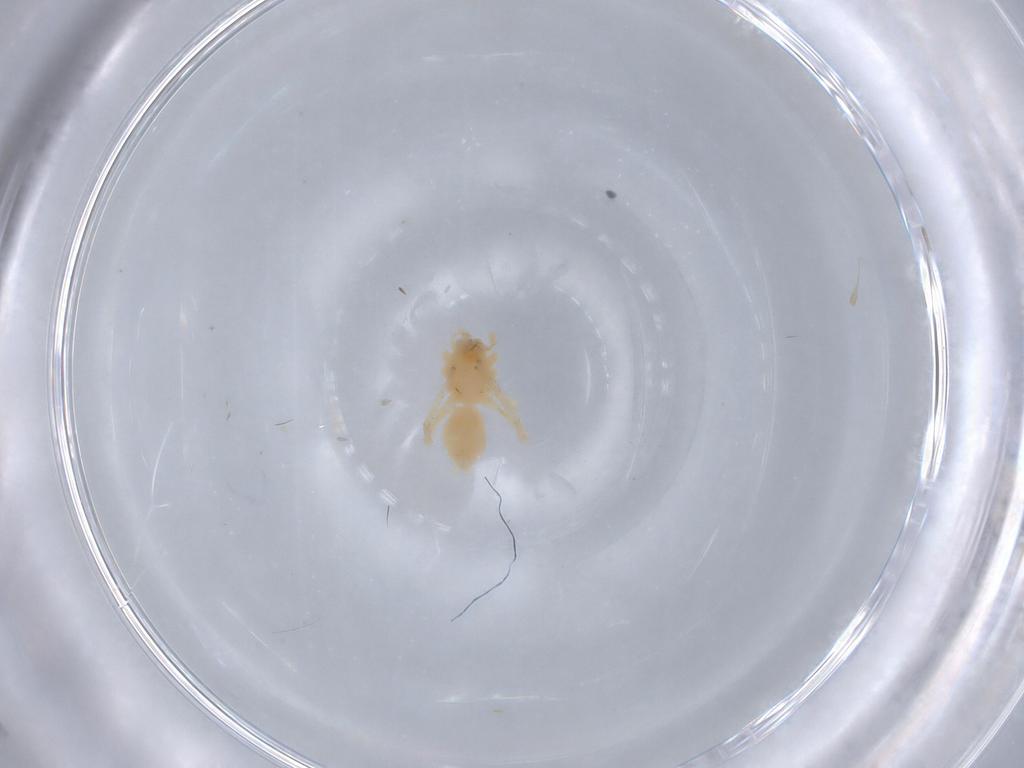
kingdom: Animalia
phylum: Arthropoda
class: Arachnida
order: Araneae
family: Anyphaenidae
